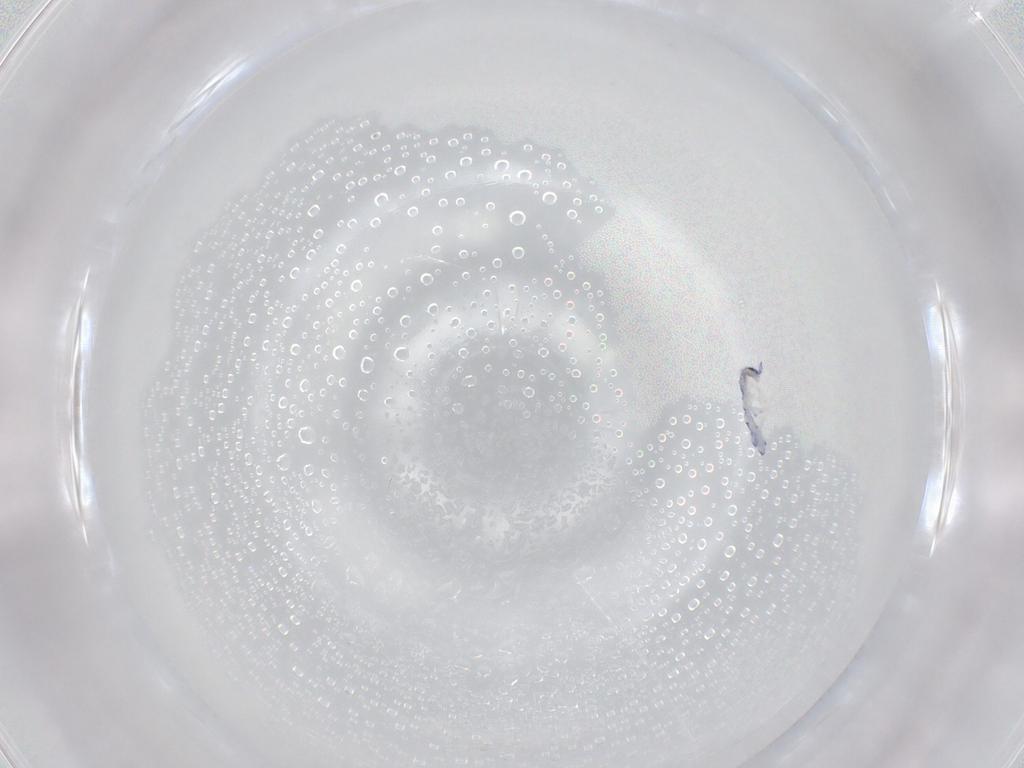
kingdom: Animalia
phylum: Arthropoda
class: Collembola
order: Entomobryomorpha
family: Entomobryidae
